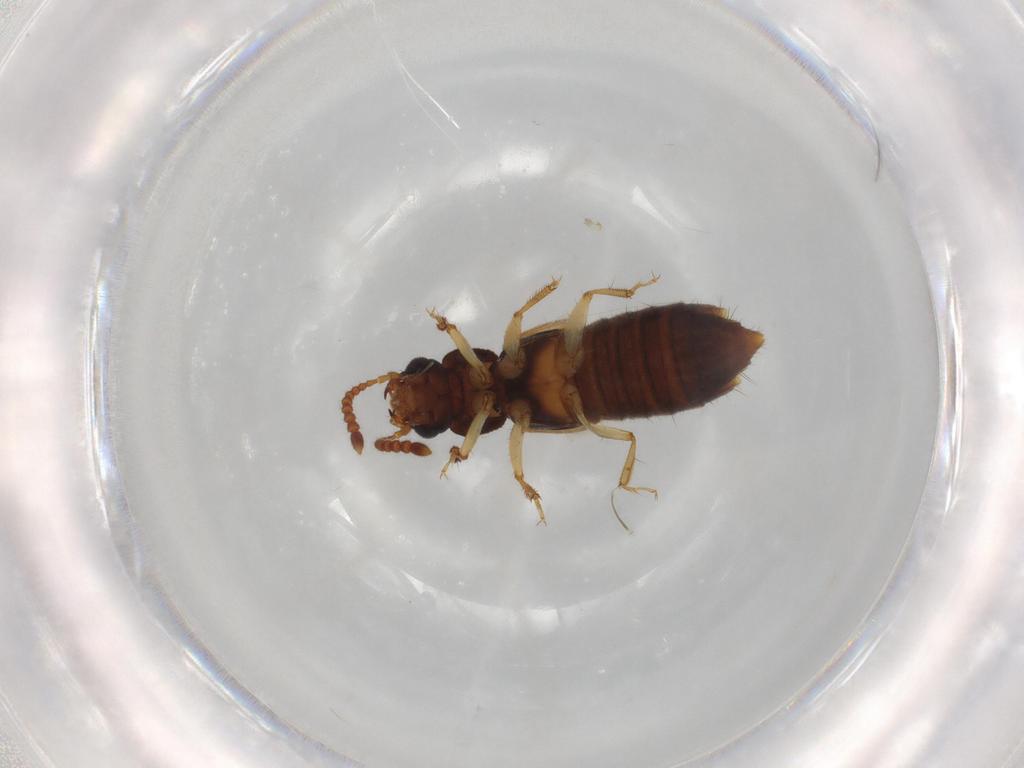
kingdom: Animalia
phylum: Arthropoda
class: Insecta
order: Coleoptera
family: Staphylinidae
